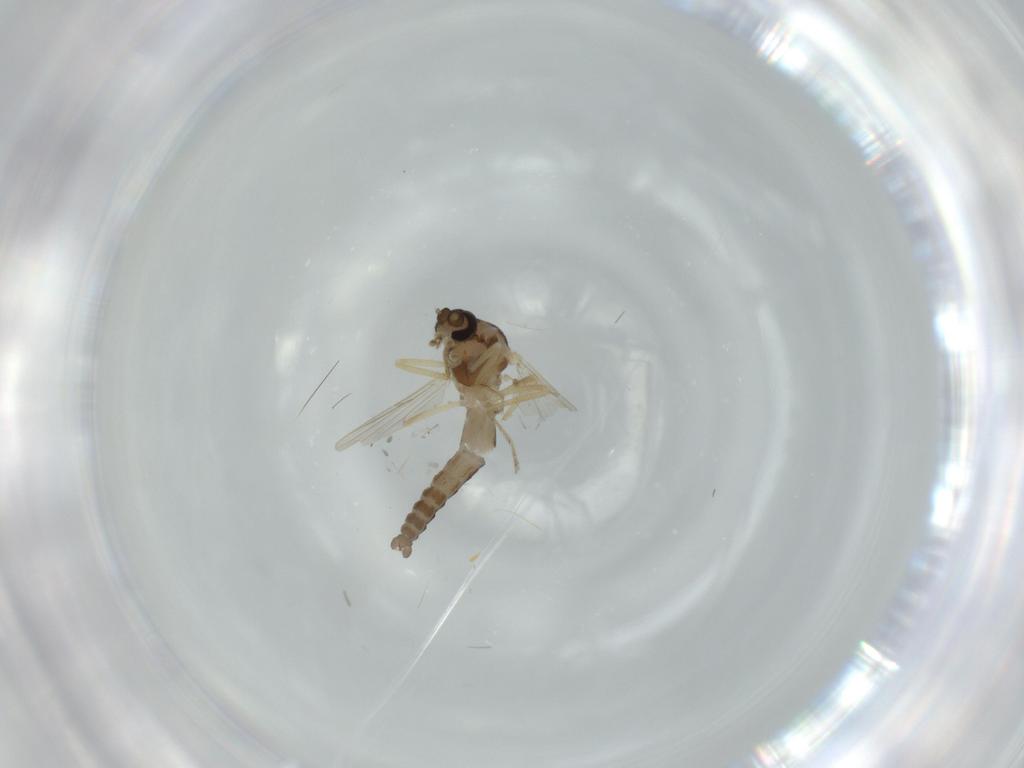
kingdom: Animalia
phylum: Arthropoda
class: Insecta
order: Diptera
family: Ceratopogonidae
